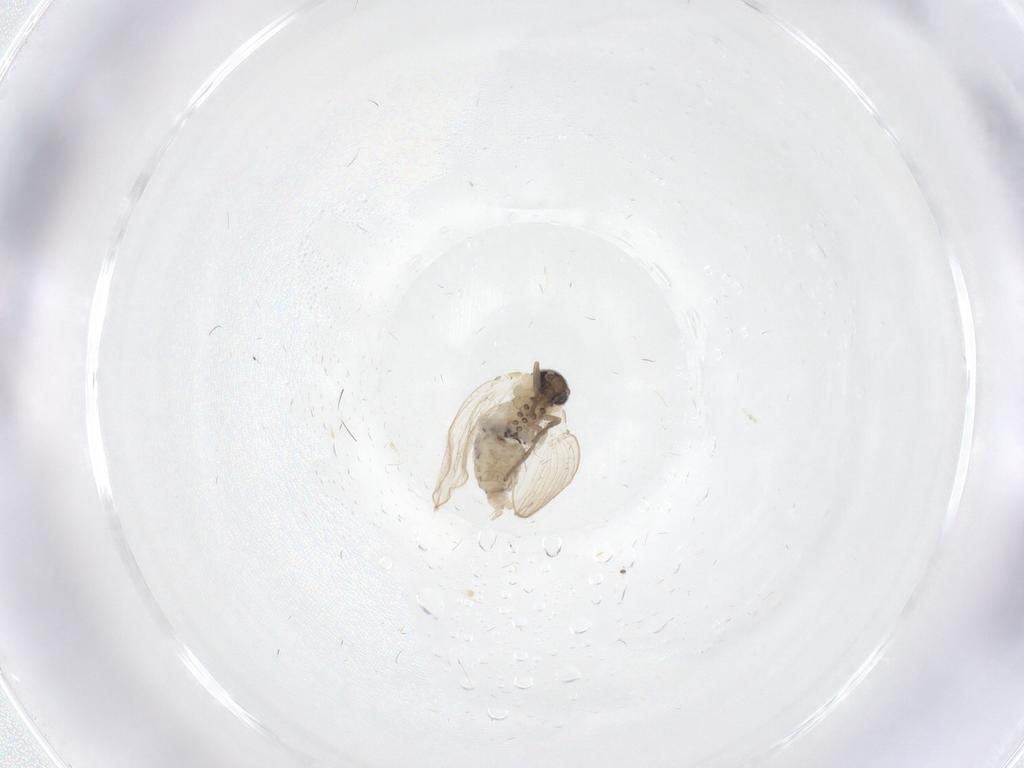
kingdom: Animalia
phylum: Arthropoda
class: Insecta
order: Diptera
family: Psychodidae
